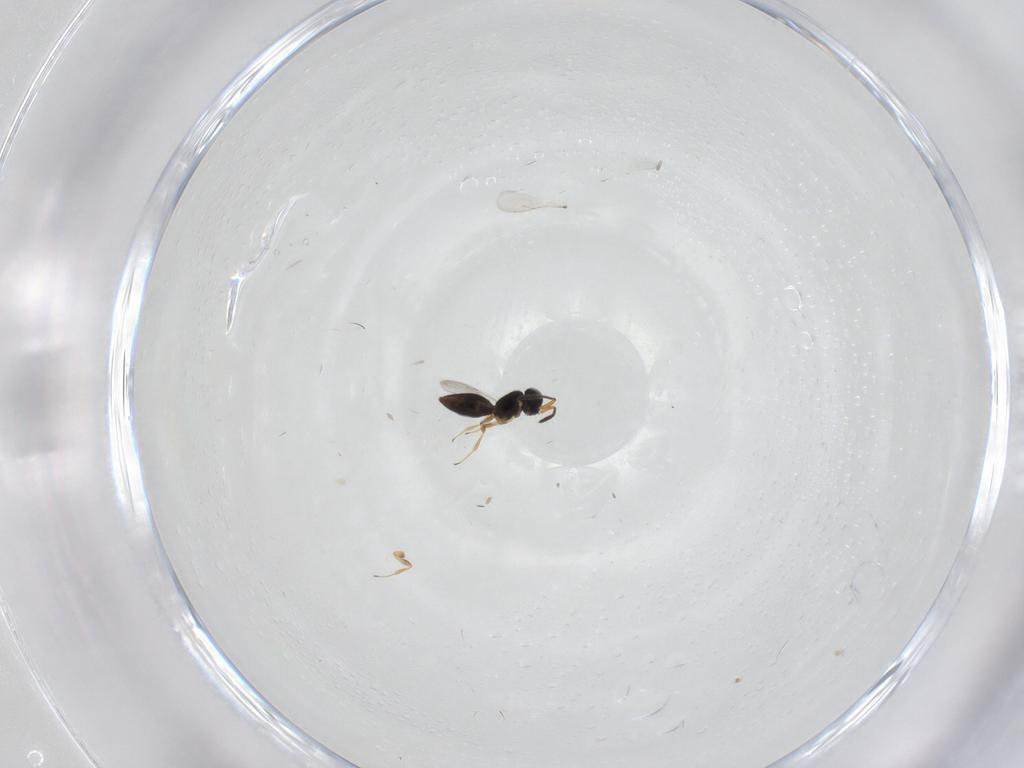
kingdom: Animalia
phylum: Arthropoda
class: Insecta
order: Hymenoptera
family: Scelionidae
